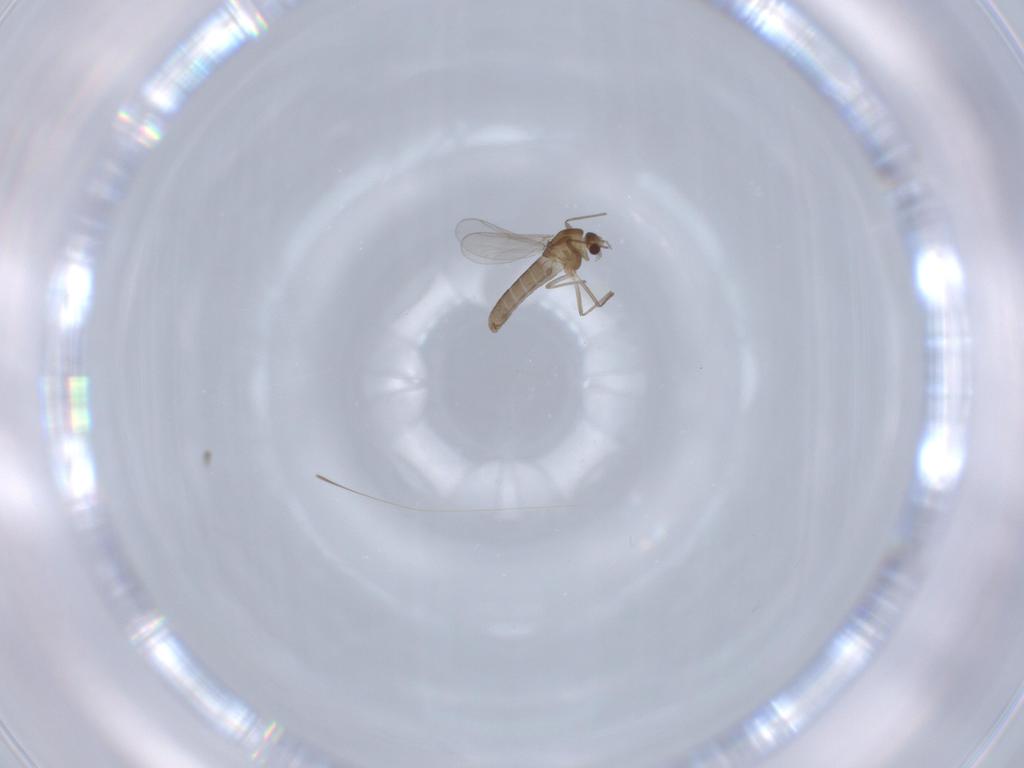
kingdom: Animalia
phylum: Arthropoda
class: Insecta
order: Diptera
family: Chironomidae
